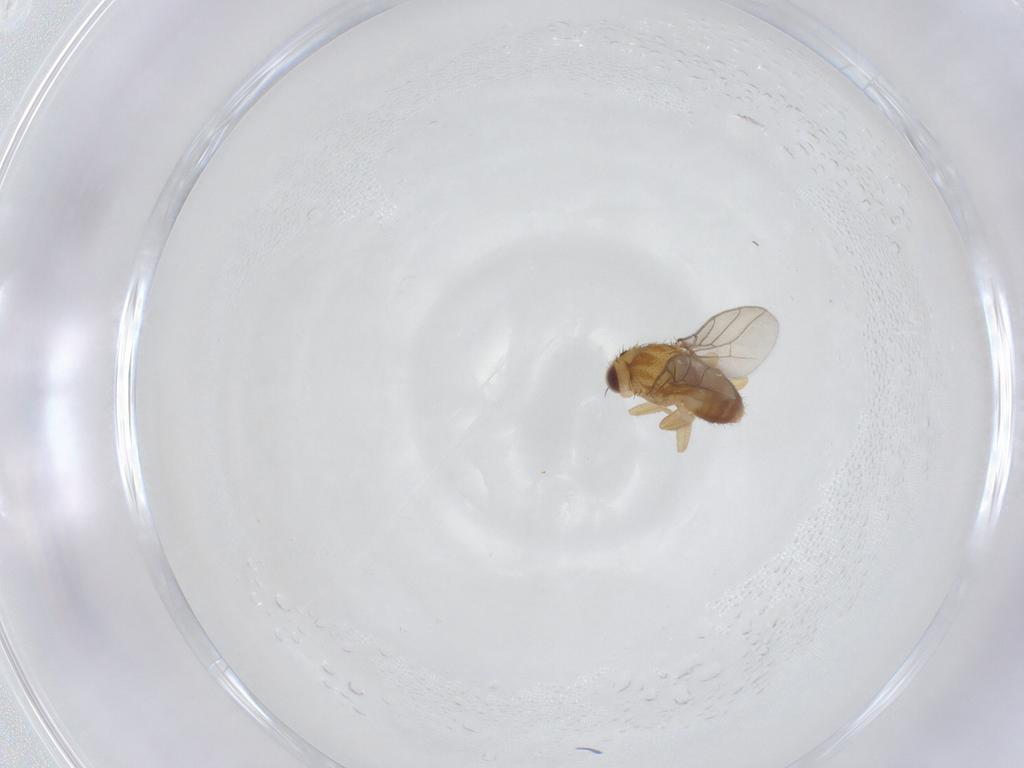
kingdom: Animalia
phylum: Arthropoda
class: Insecta
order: Diptera
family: Chloropidae
